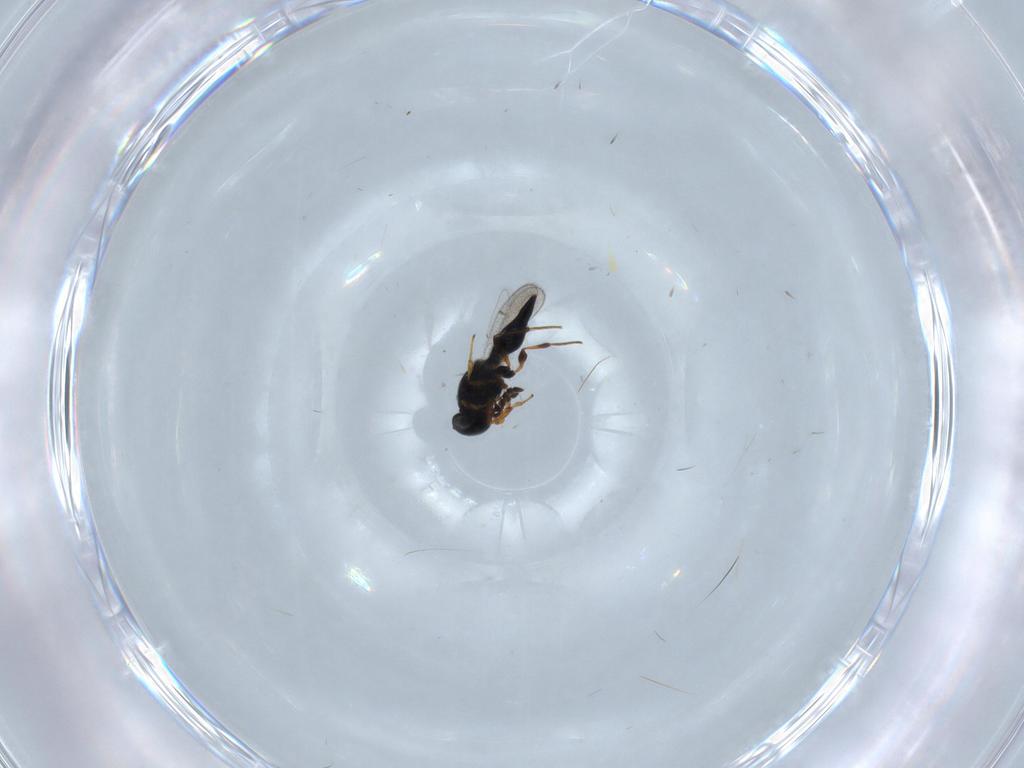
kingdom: Animalia
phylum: Arthropoda
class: Insecta
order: Hymenoptera
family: Platygastridae
